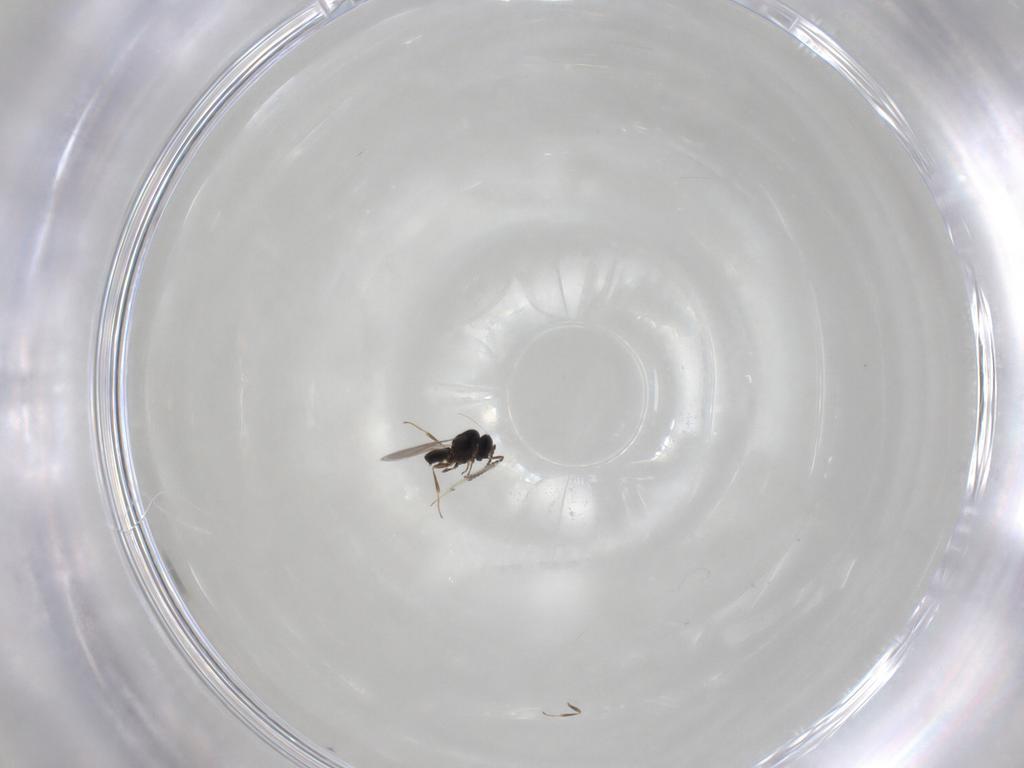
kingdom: Animalia
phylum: Arthropoda
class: Insecta
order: Hymenoptera
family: Scelionidae
